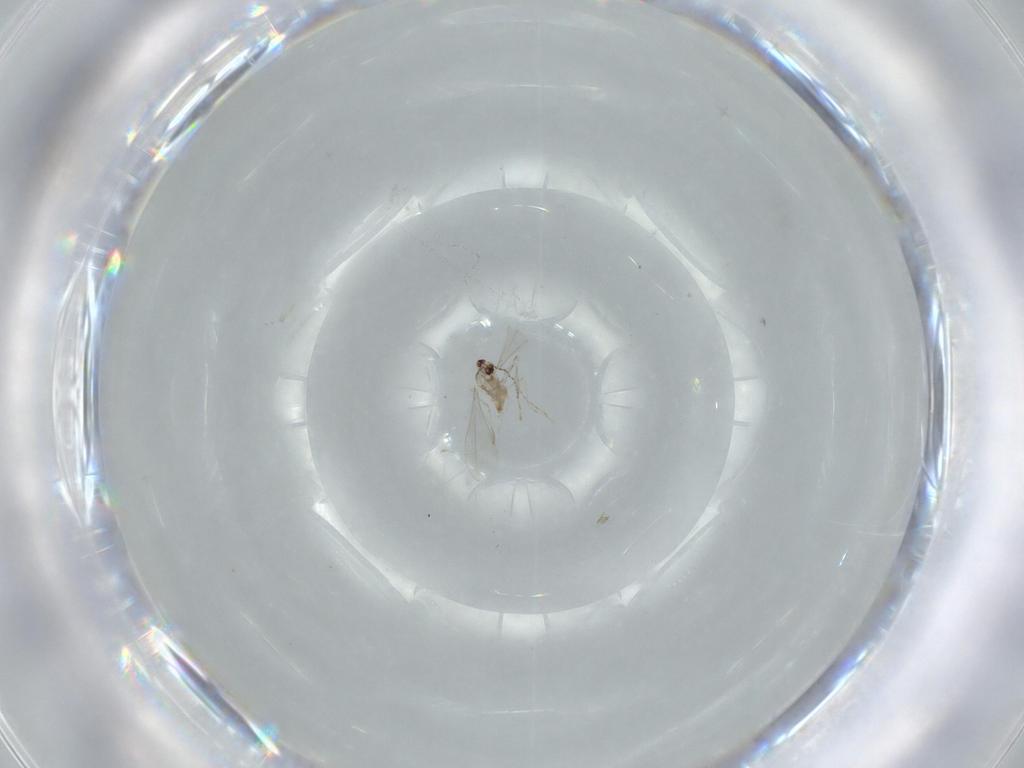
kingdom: Animalia
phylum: Arthropoda
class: Insecta
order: Diptera
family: Cecidomyiidae
